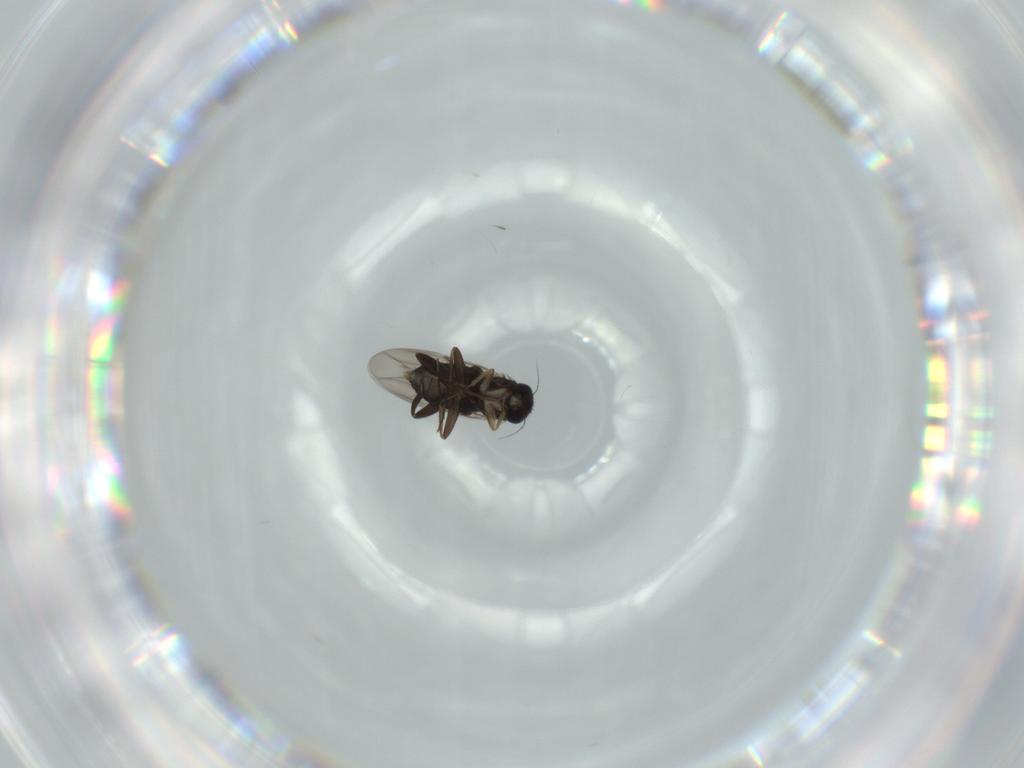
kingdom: Animalia
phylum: Arthropoda
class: Insecta
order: Diptera
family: Phoridae
